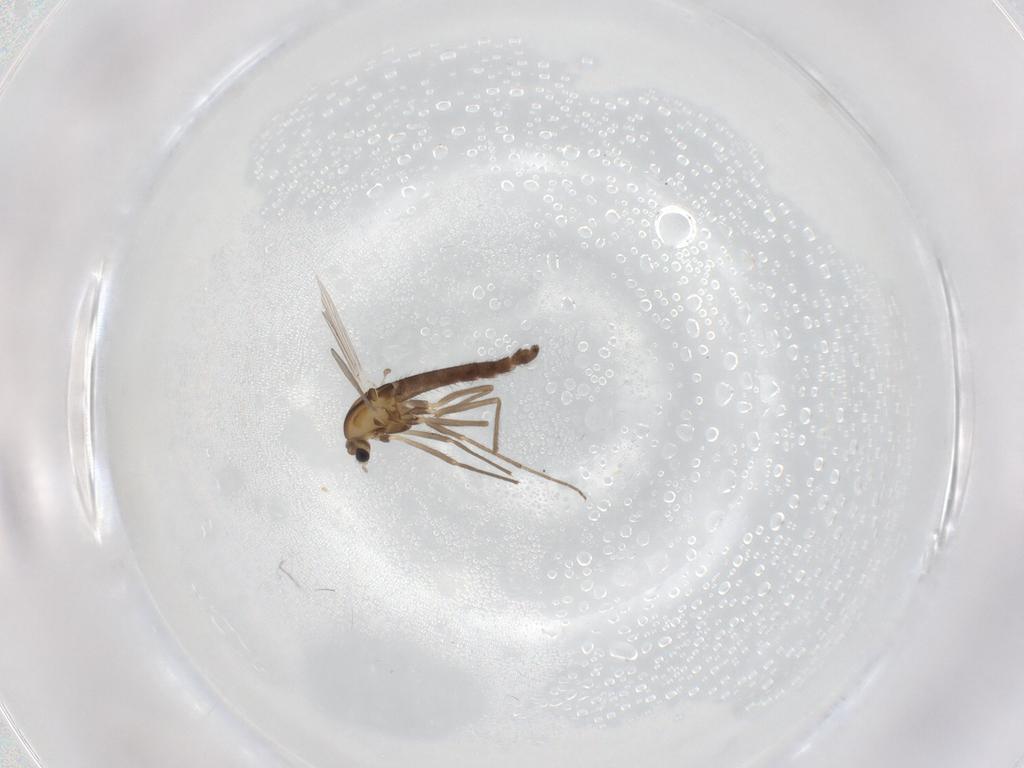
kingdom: Animalia
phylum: Arthropoda
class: Insecta
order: Diptera
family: Chironomidae
